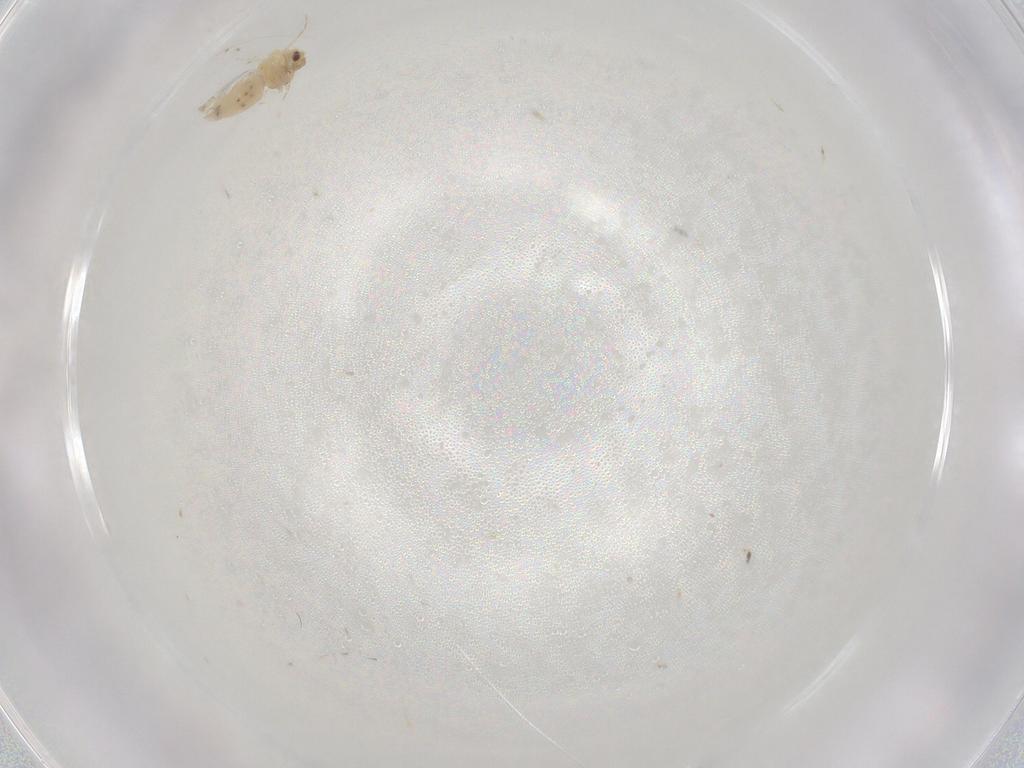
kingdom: Animalia
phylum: Arthropoda
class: Insecta
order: Hemiptera
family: Aleyrodidae
